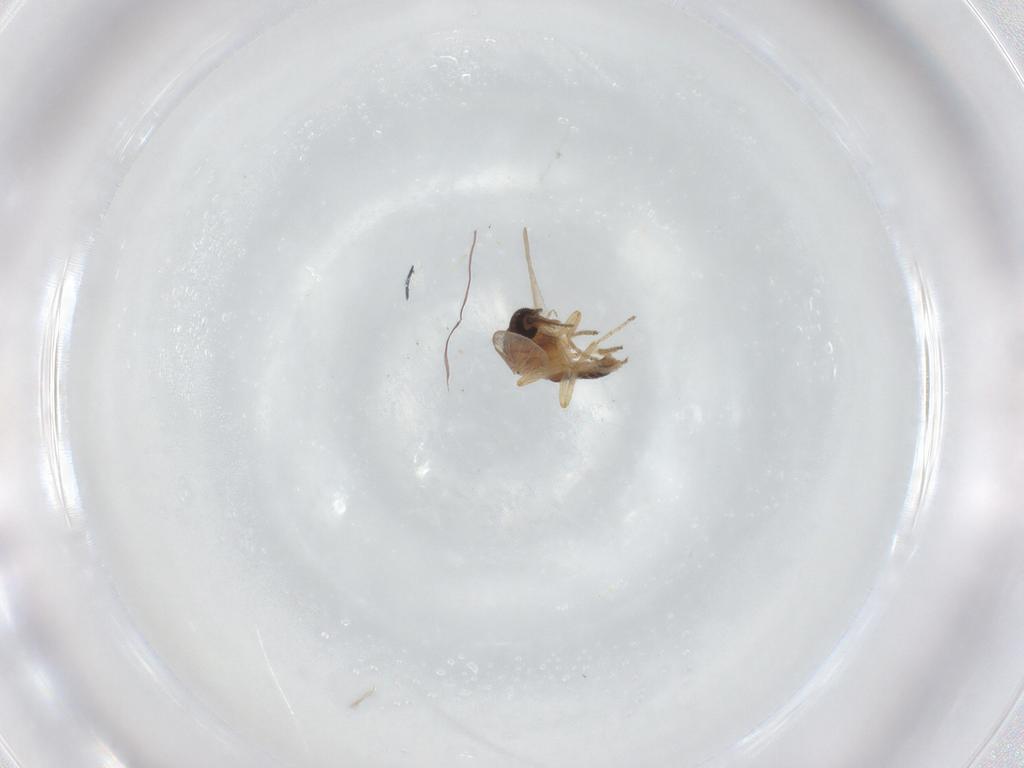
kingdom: Animalia
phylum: Arthropoda
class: Insecta
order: Diptera
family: Ceratopogonidae
